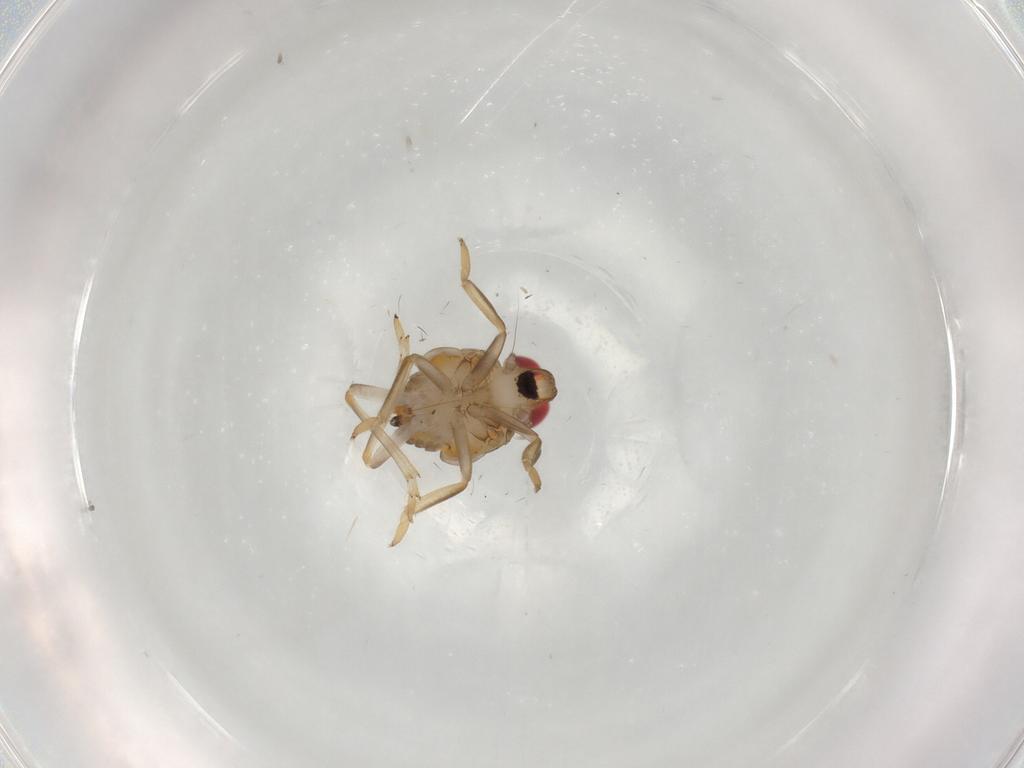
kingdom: Animalia
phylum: Arthropoda
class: Insecta
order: Hemiptera
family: Issidae
